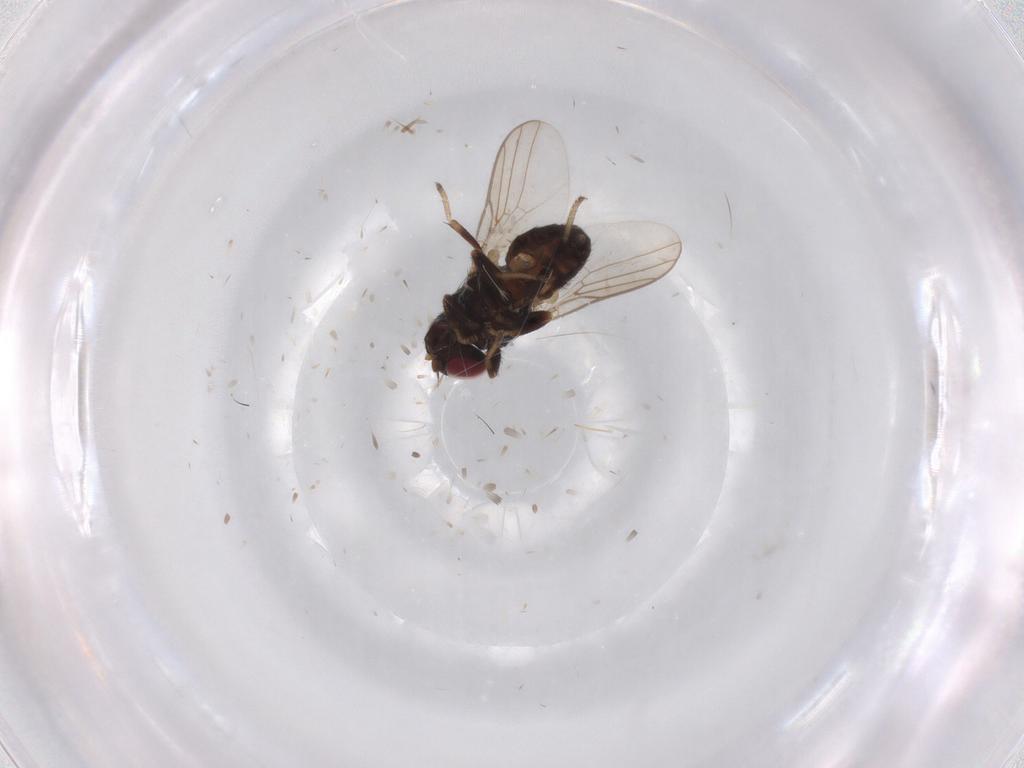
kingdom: Animalia
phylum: Arthropoda
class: Insecta
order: Diptera
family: Chloropidae
